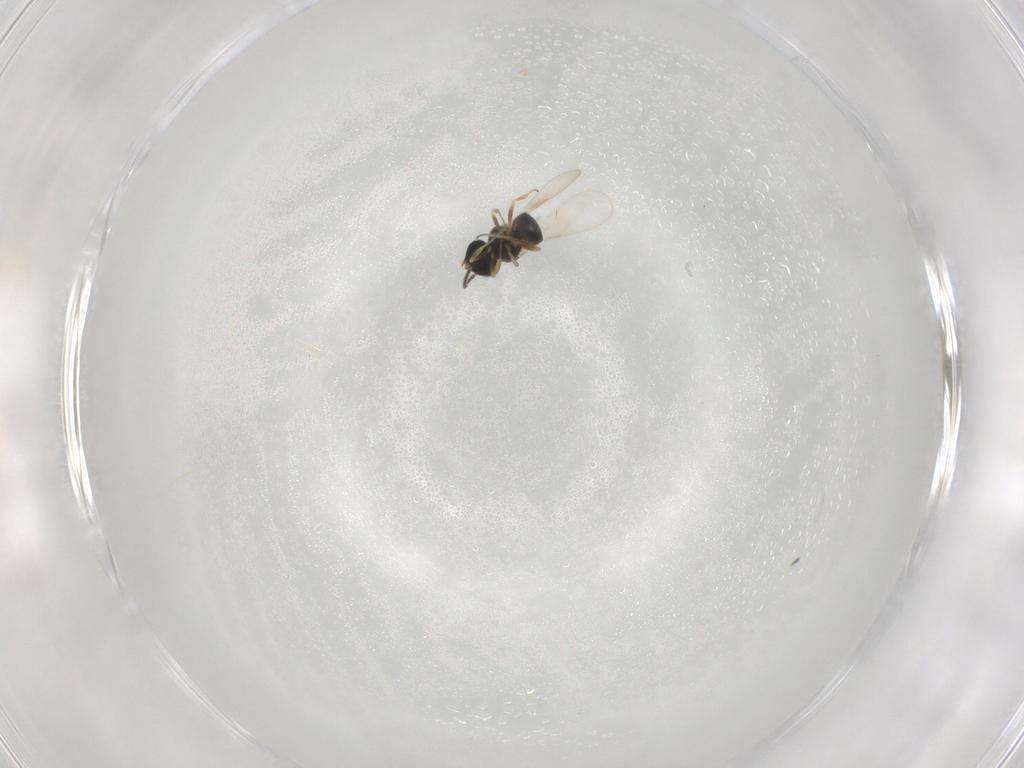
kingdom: Animalia
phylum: Arthropoda
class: Insecta
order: Hymenoptera
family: Scelionidae
